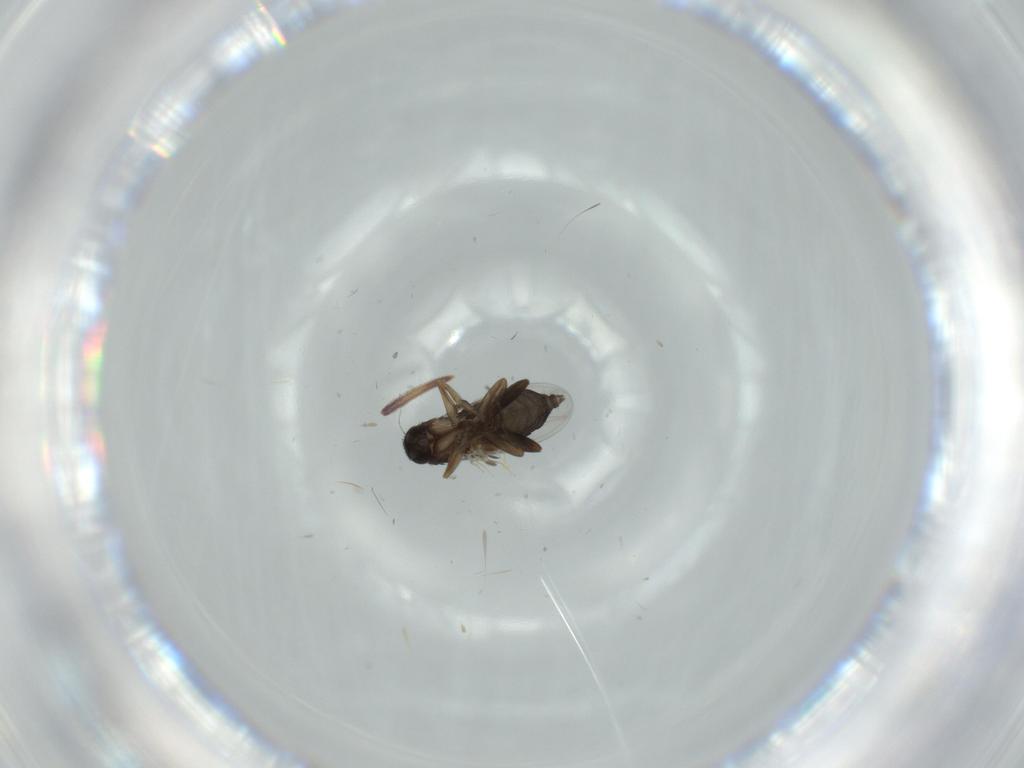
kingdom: Animalia
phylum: Arthropoda
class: Insecta
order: Diptera
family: Phoridae
